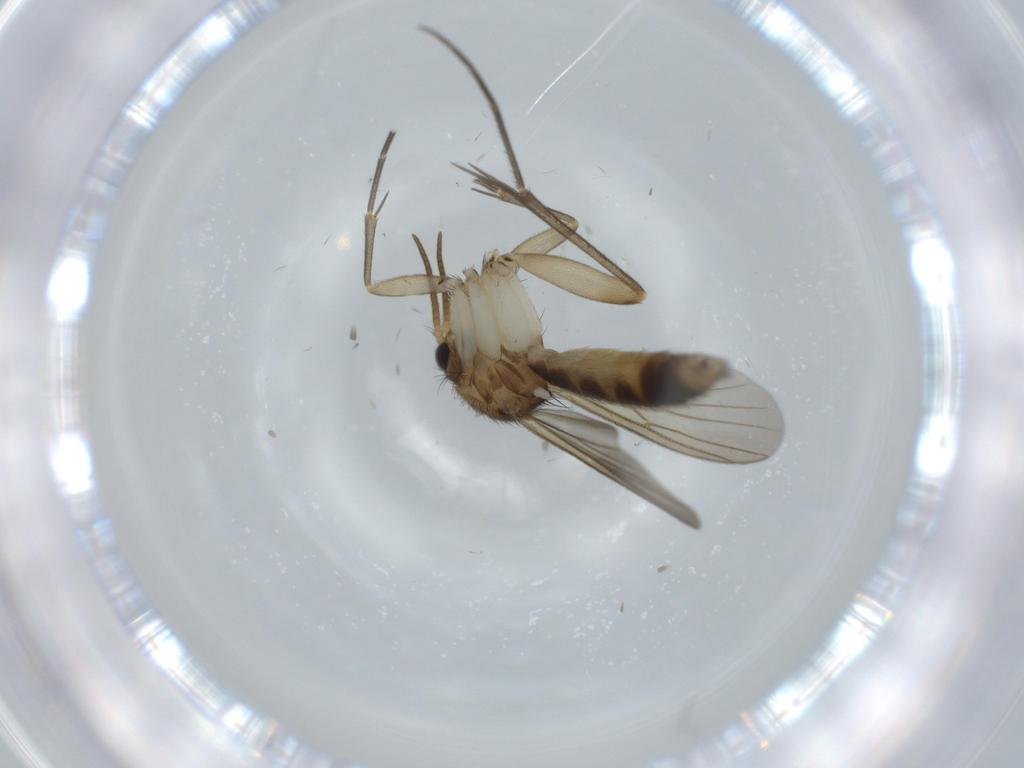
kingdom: Animalia
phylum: Arthropoda
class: Insecta
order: Diptera
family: Mycetophilidae
